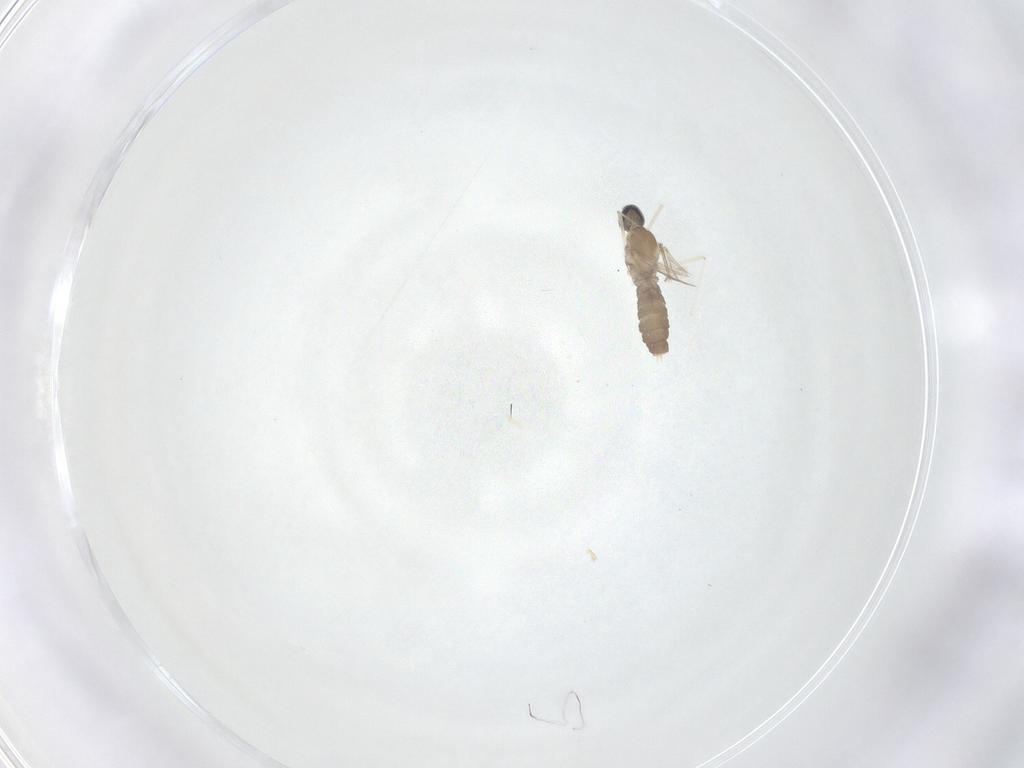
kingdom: Animalia
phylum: Arthropoda
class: Insecta
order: Diptera
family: Cecidomyiidae
